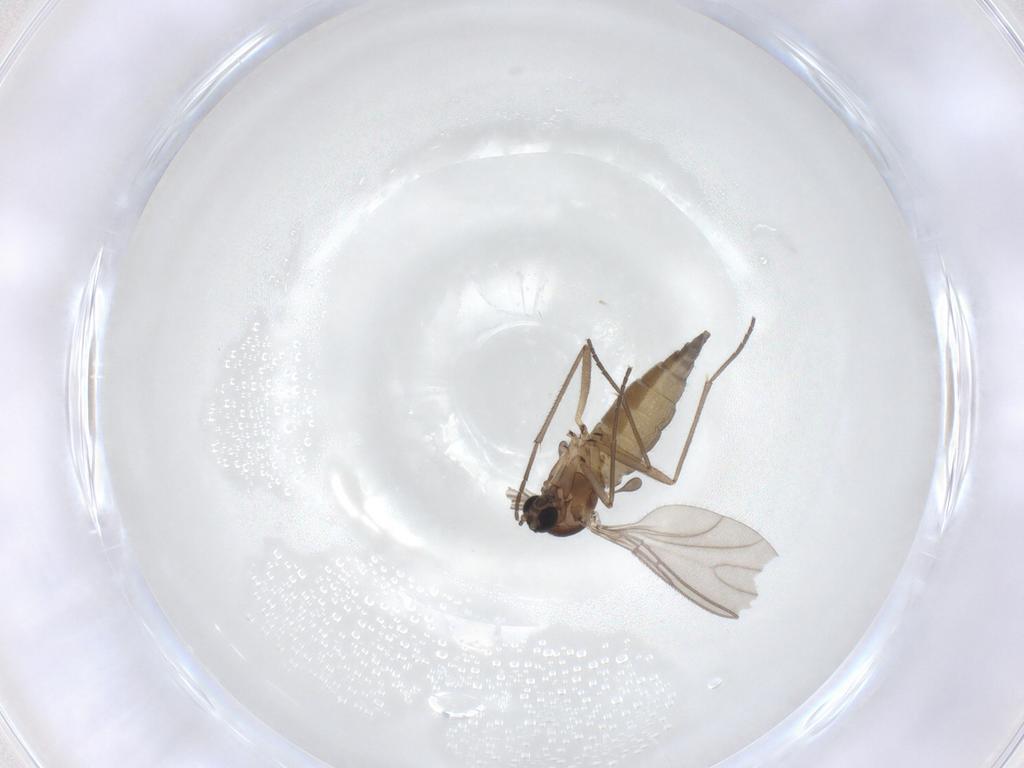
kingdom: Animalia
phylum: Arthropoda
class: Insecta
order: Diptera
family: Sciaridae
